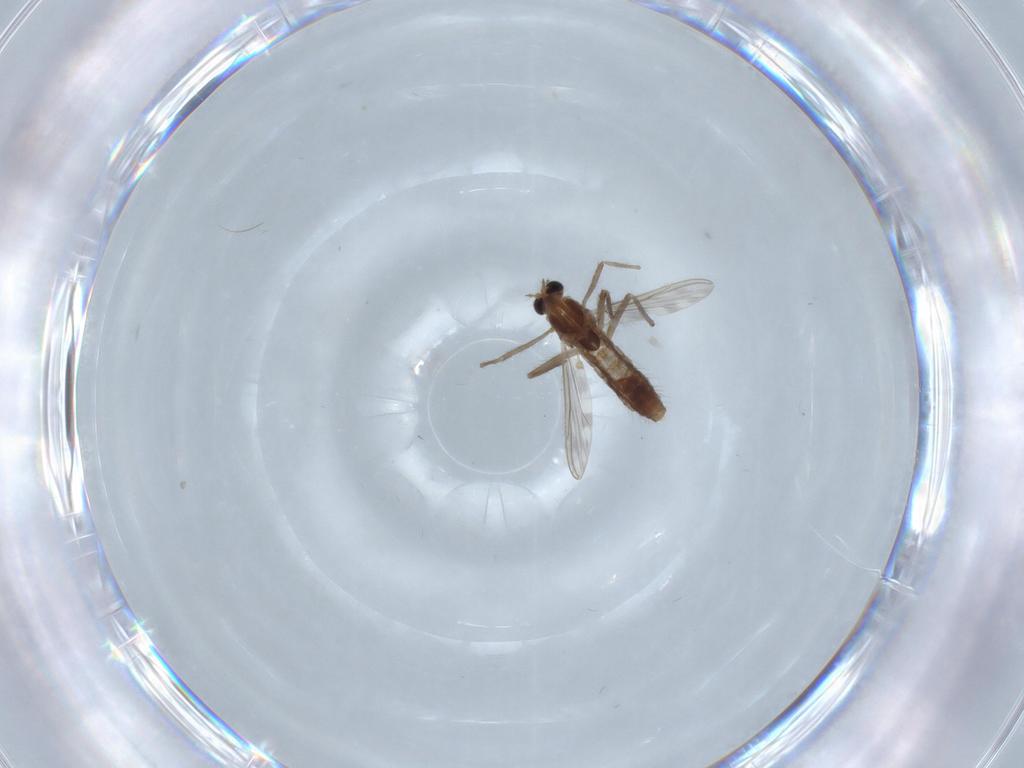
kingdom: Animalia
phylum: Arthropoda
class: Insecta
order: Diptera
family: Chironomidae
